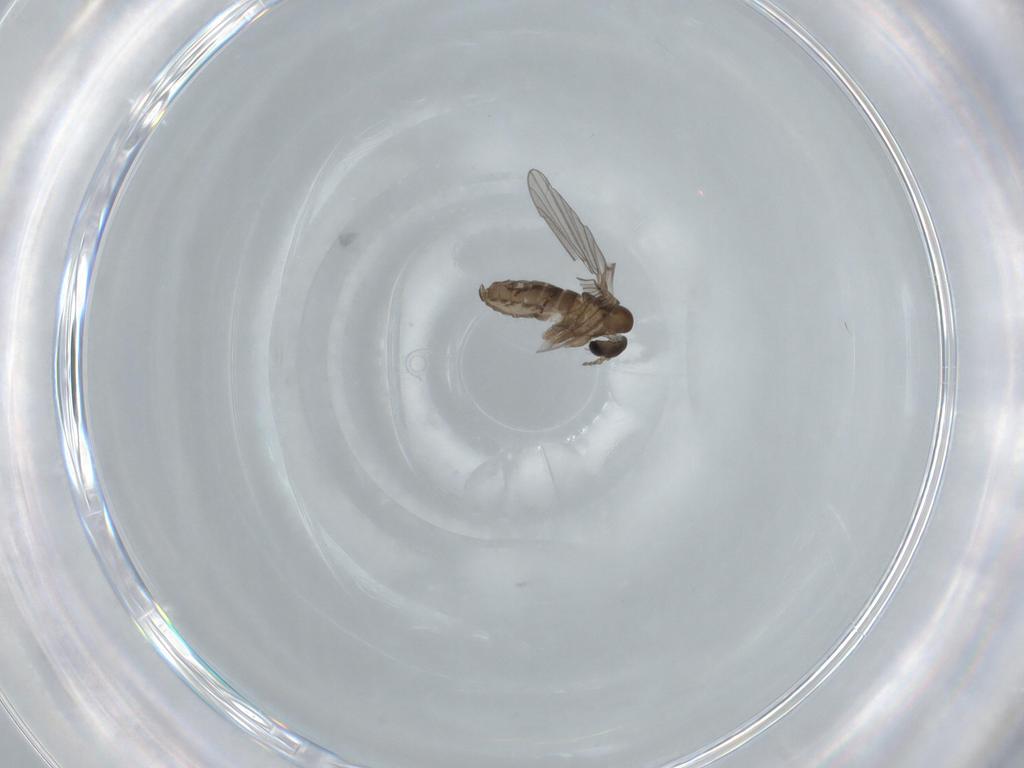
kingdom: Animalia
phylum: Arthropoda
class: Insecta
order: Diptera
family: Psychodidae
